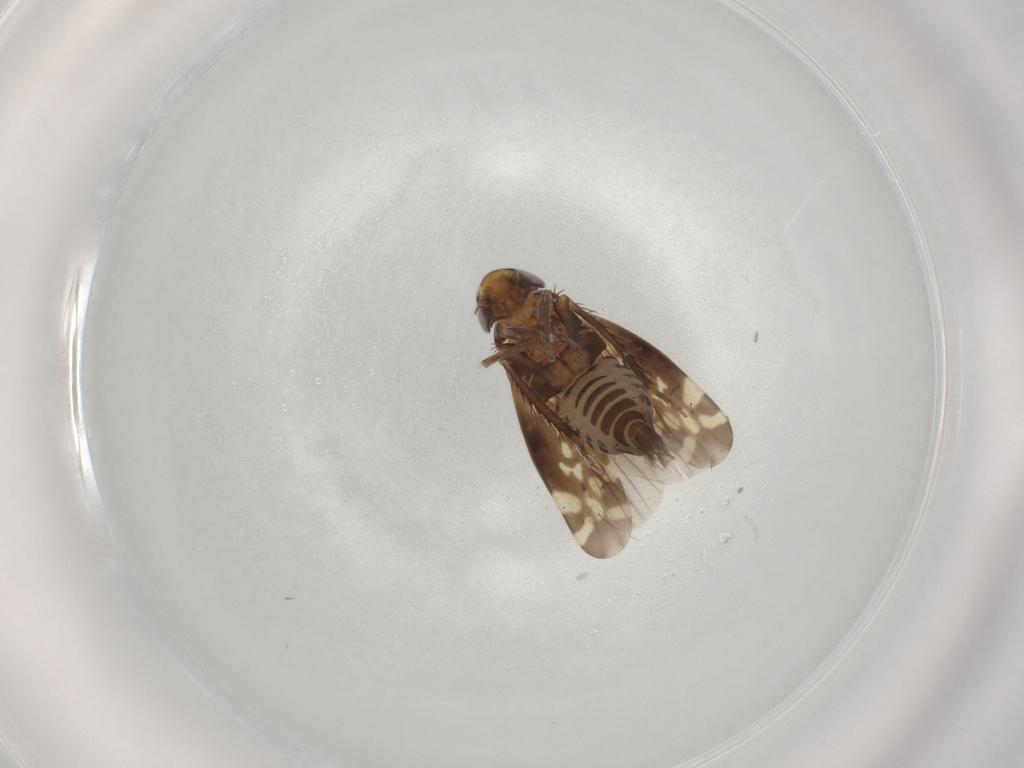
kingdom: Animalia
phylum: Arthropoda
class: Insecta
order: Hemiptera
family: Cicadellidae
